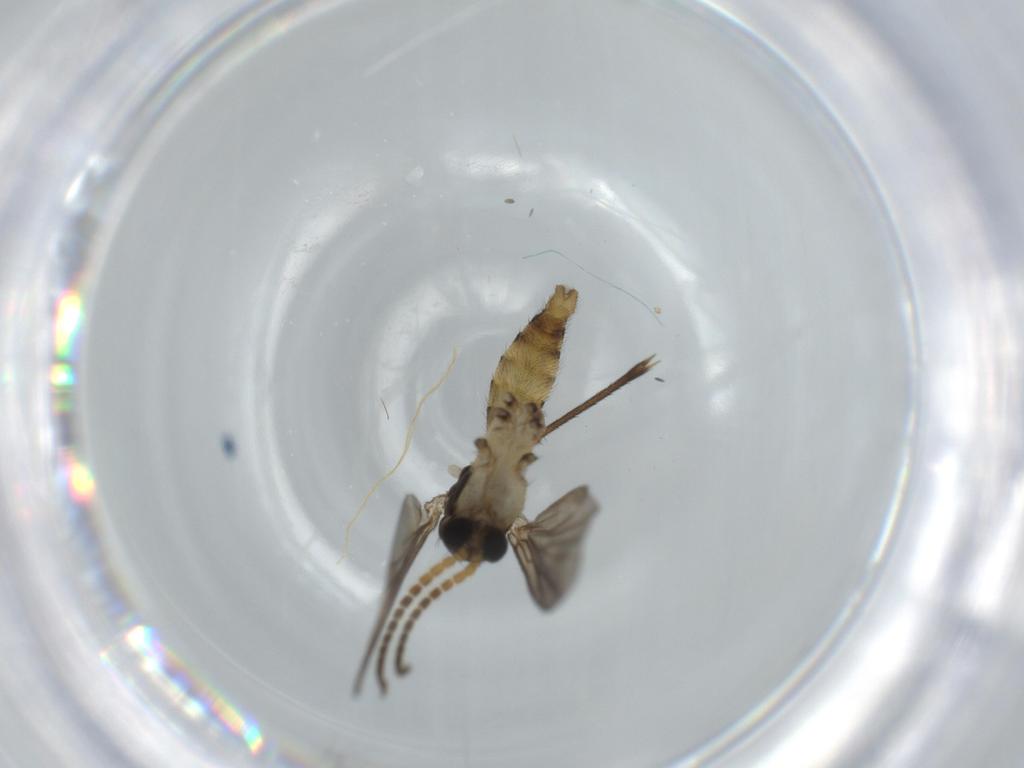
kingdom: Animalia
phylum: Arthropoda
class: Insecta
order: Diptera
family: Mycetophilidae
